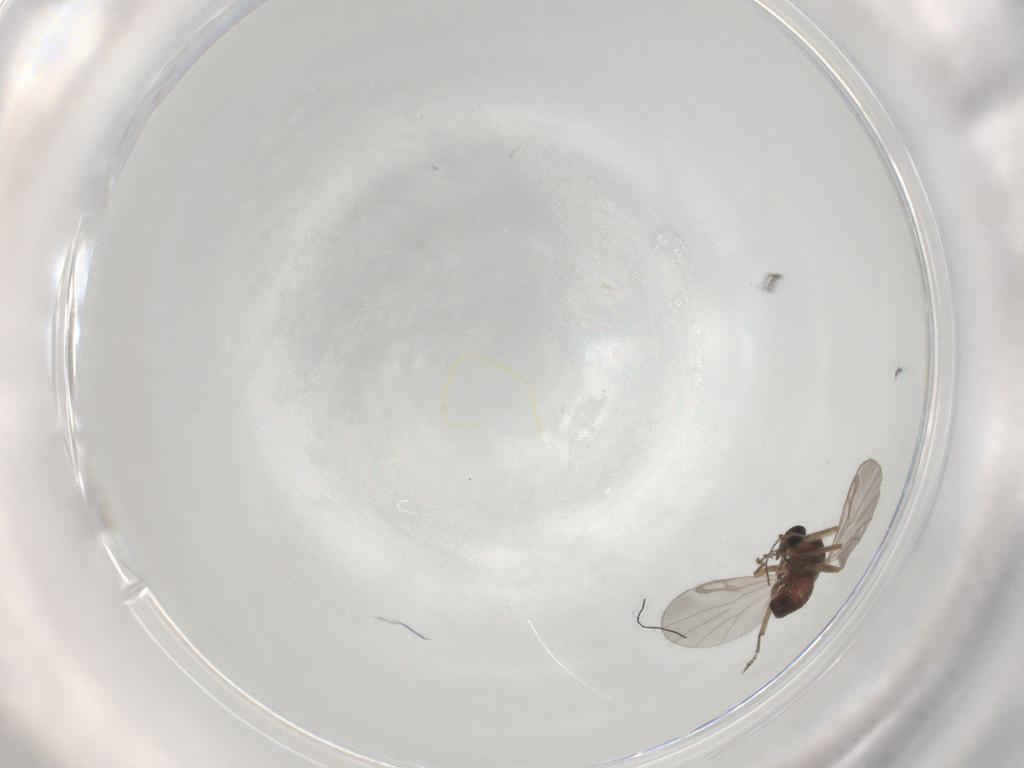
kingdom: Animalia
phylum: Arthropoda
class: Insecta
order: Diptera
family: Ceratopogonidae
